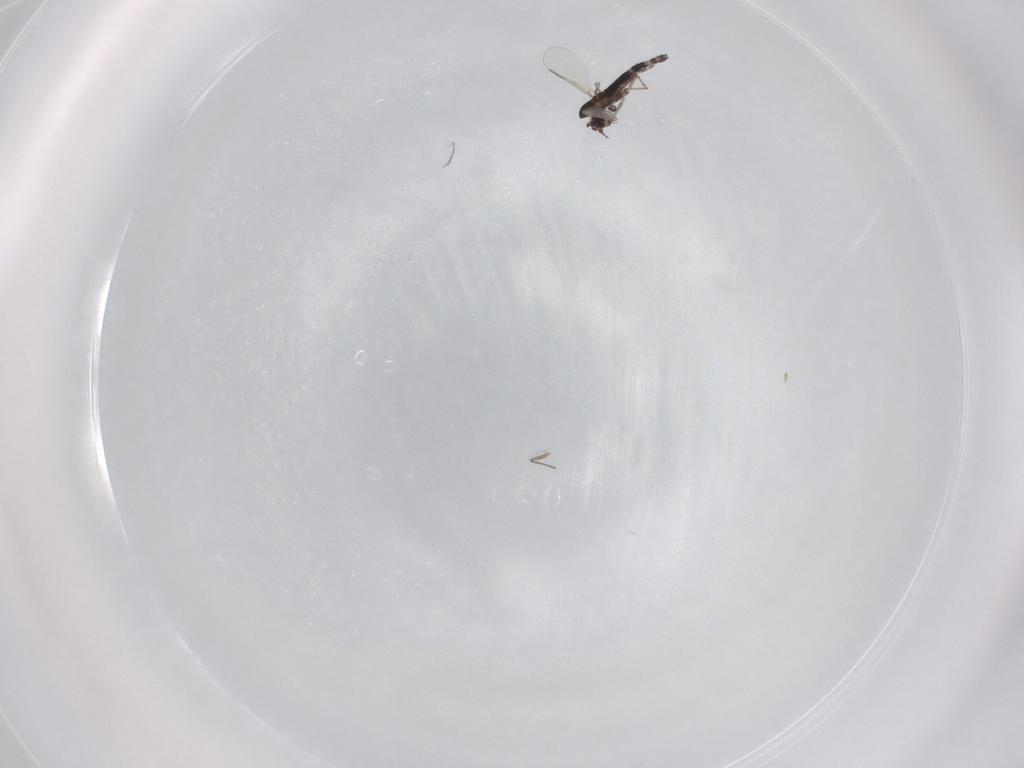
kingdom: Animalia
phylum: Arthropoda
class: Insecta
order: Diptera
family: Chironomidae
